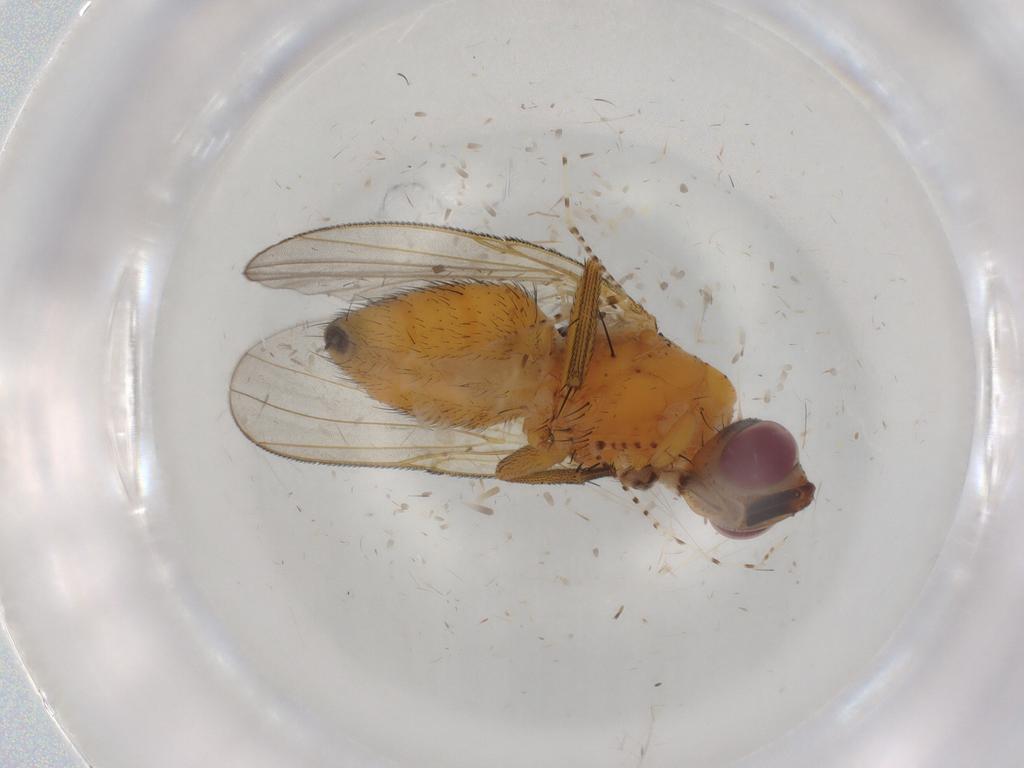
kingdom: Animalia
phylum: Arthropoda
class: Insecta
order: Diptera
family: Muscidae
